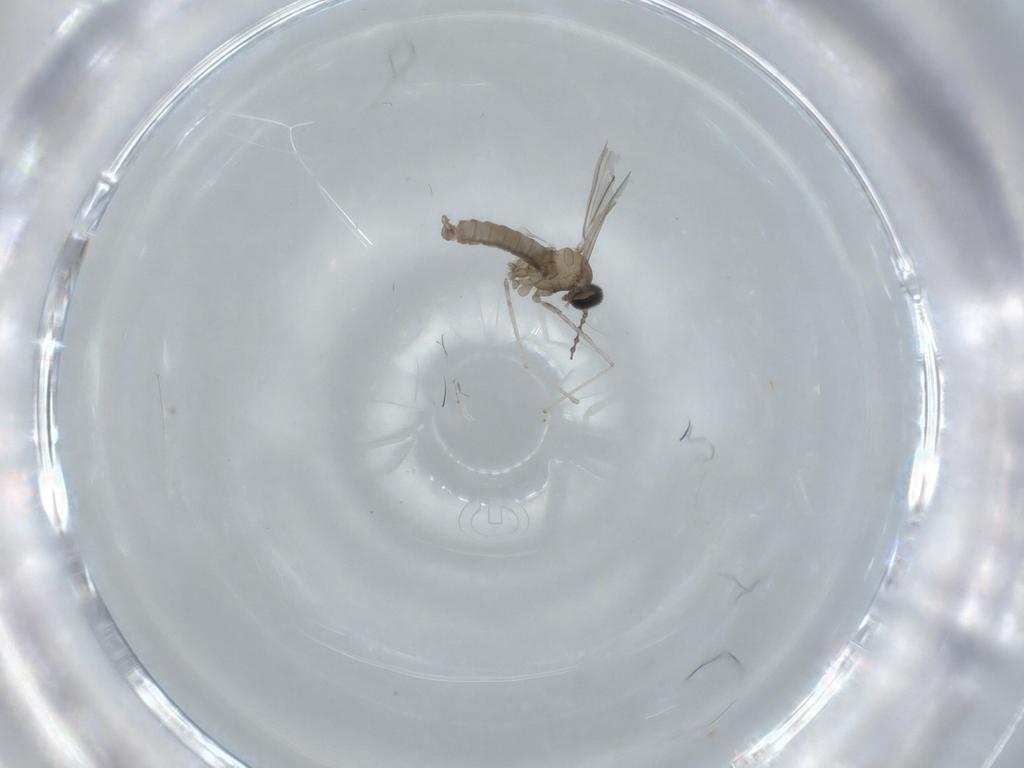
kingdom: Animalia
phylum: Arthropoda
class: Insecta
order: Diptera
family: Cecidomyiidae
